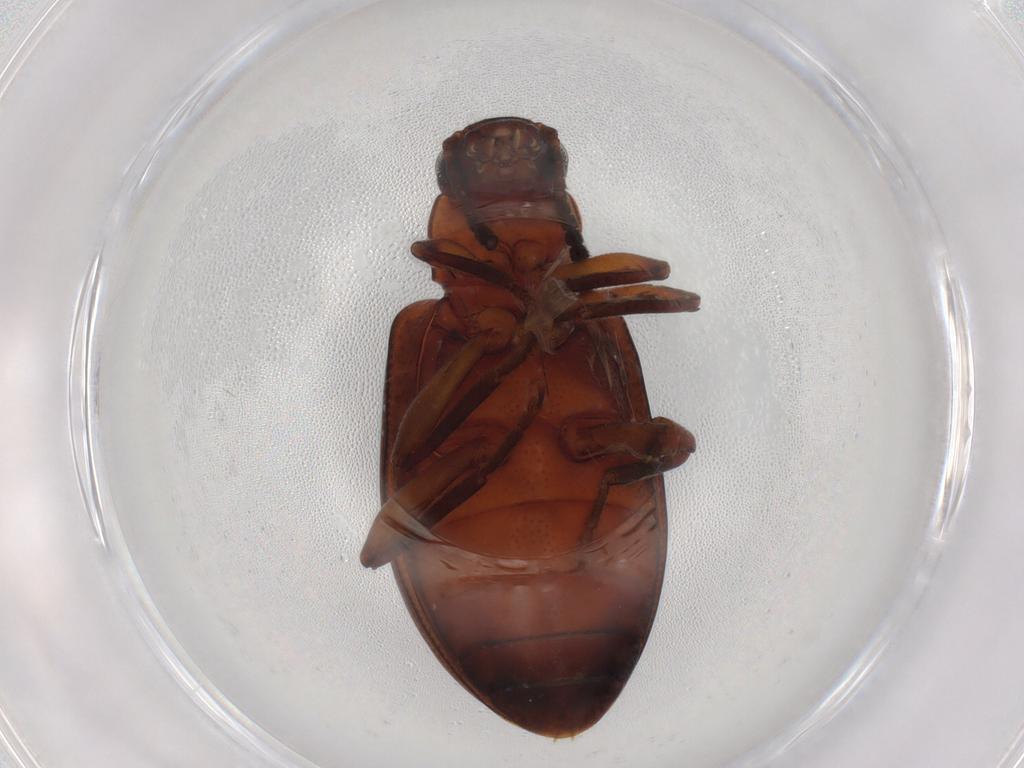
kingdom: Animalia
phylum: Arthropoda
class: Insecta
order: Coleoptera
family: Tenebrionidae
